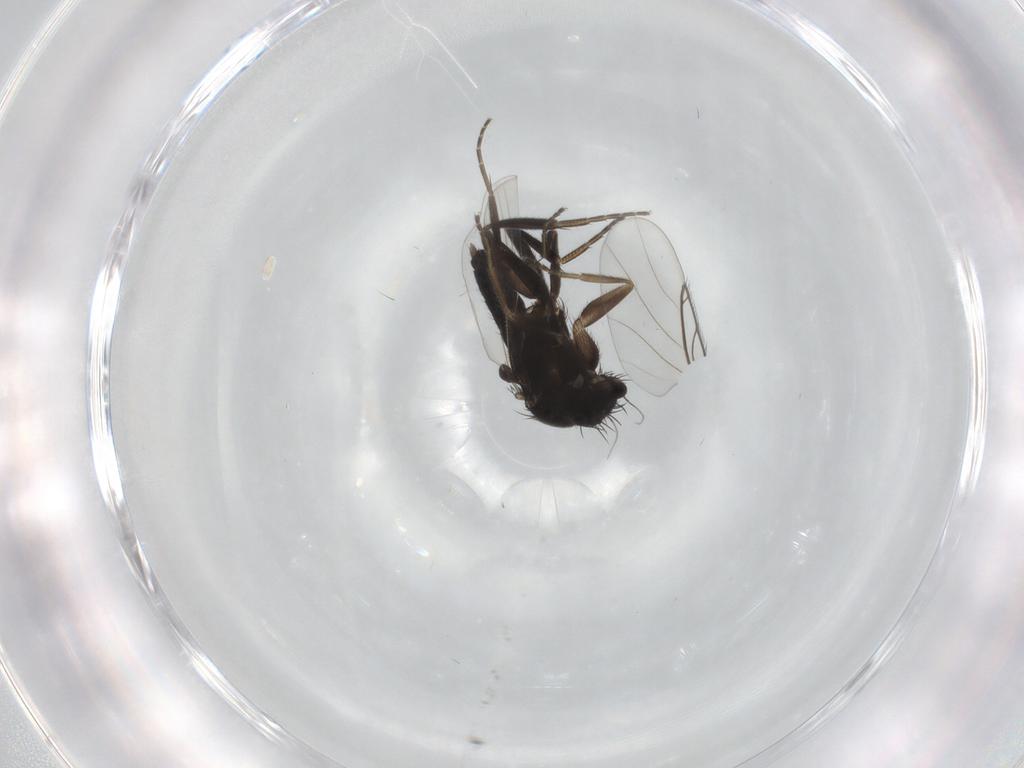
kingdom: Animalia
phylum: Arthropoda
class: Insecta
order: Diptera
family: Phoridae
